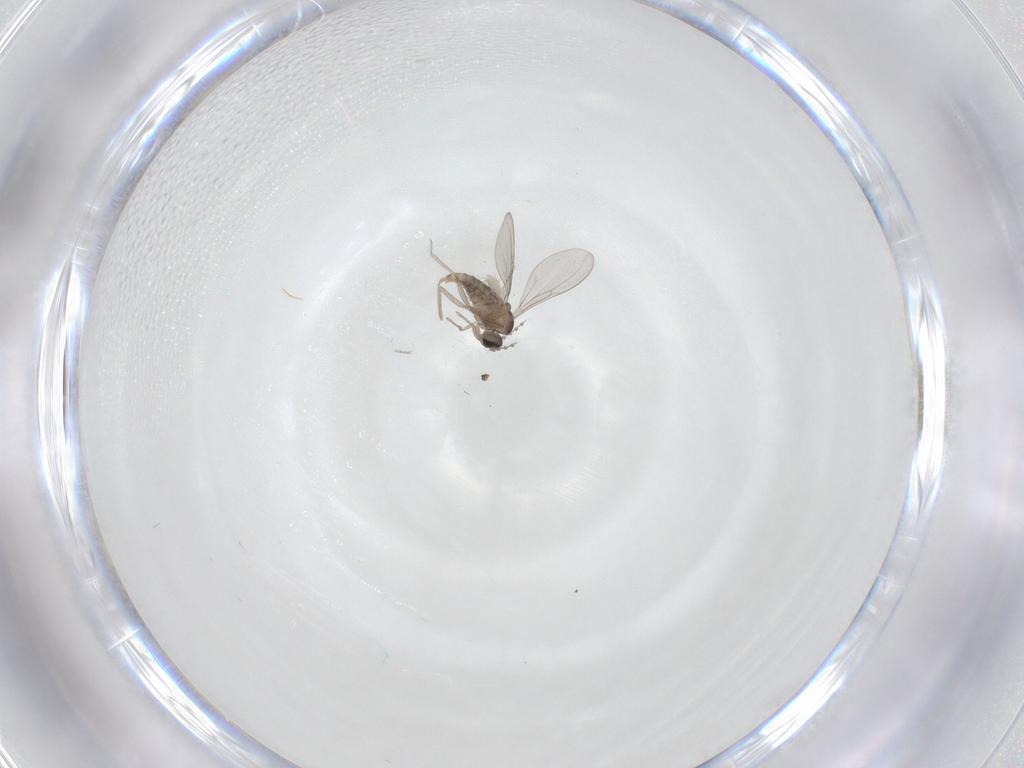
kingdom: Animalia
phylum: Arthropoda
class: Insecta
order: Diptera
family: Cecidomyiidae
